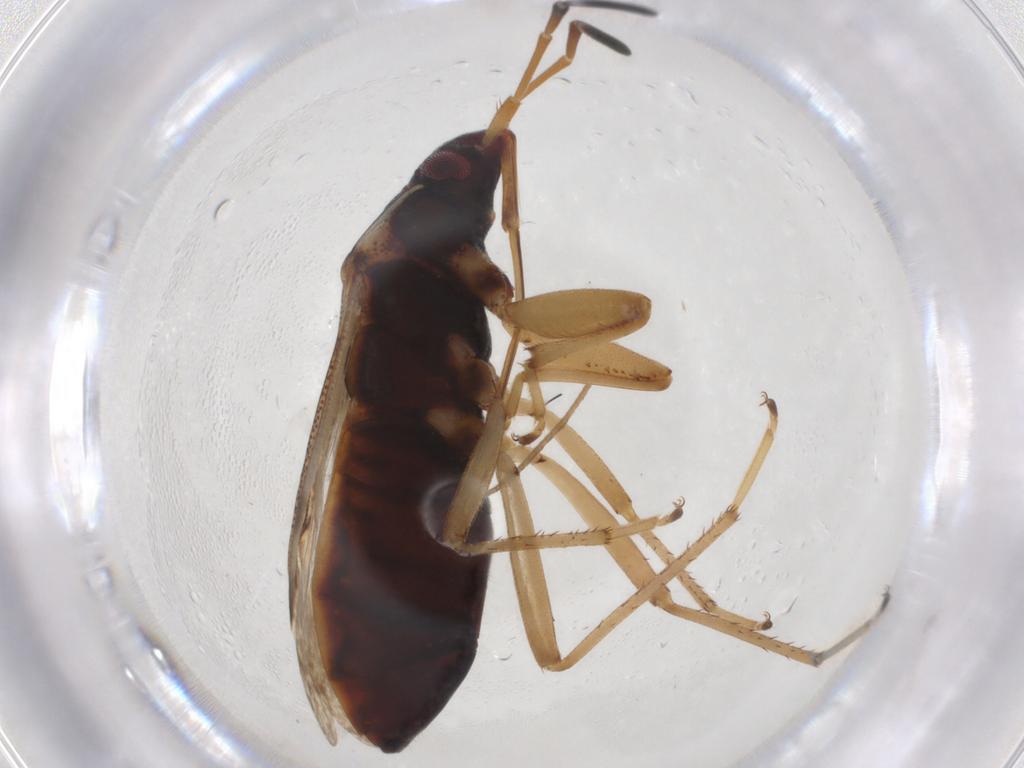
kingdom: Animalia
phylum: Arthropoda
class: Insecta
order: Hemiptera
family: Rhyparochromidae
